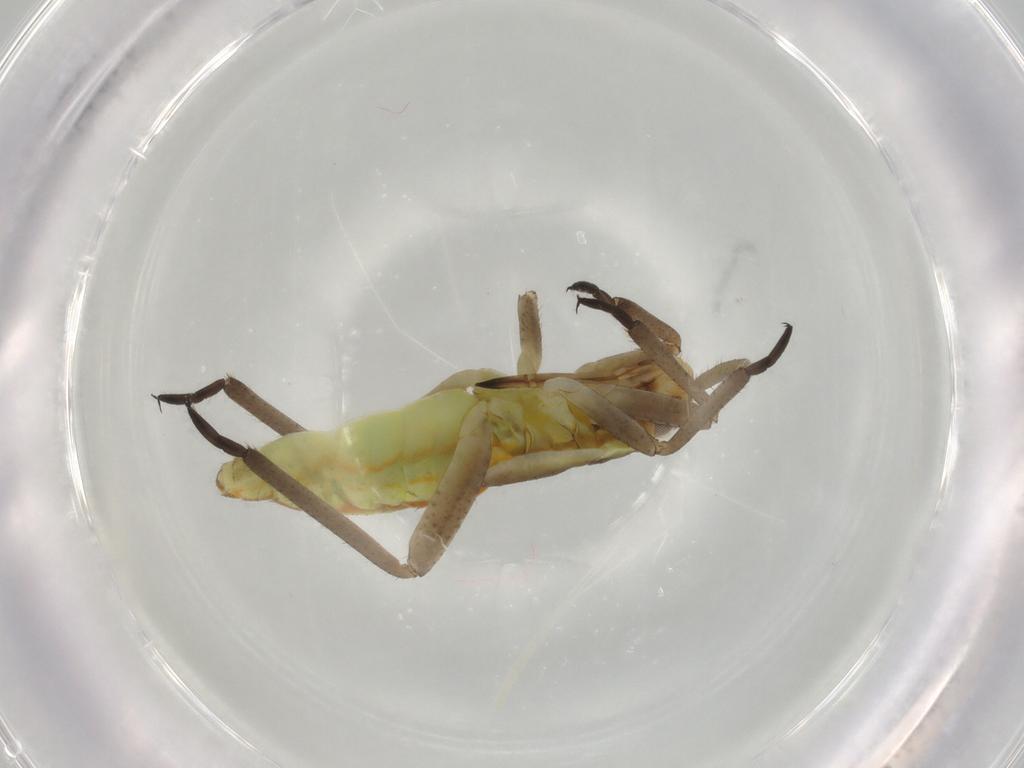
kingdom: Animalia
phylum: Arthropoda
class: Insecta
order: Hemiptera
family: Miridae
